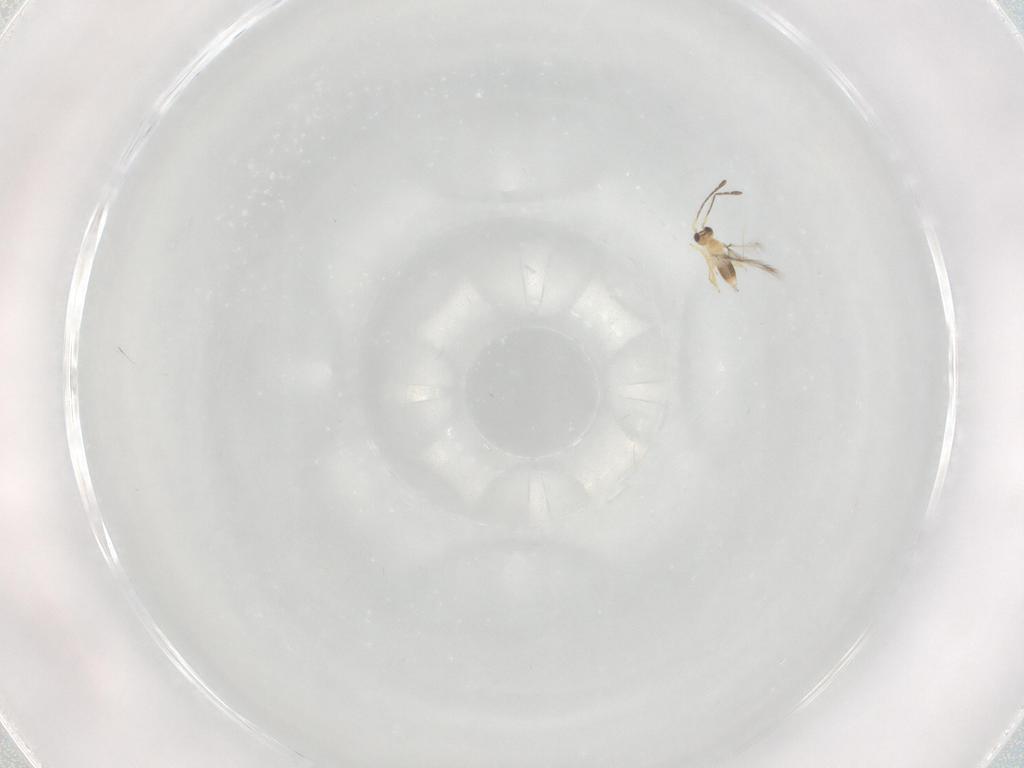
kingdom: Animalia
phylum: Arthropoda
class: Insecta
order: Hymenoptera
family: Mymaridae
